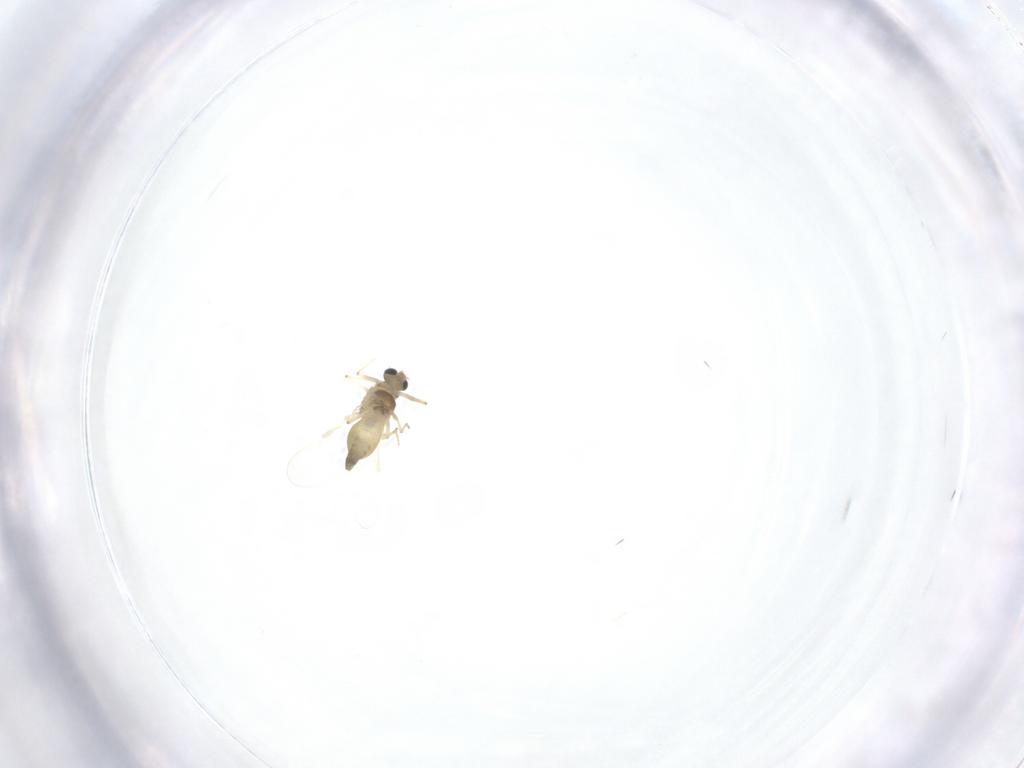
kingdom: Animalia
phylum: Arthropoda
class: Insecta
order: Diptera
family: Chironomidae
